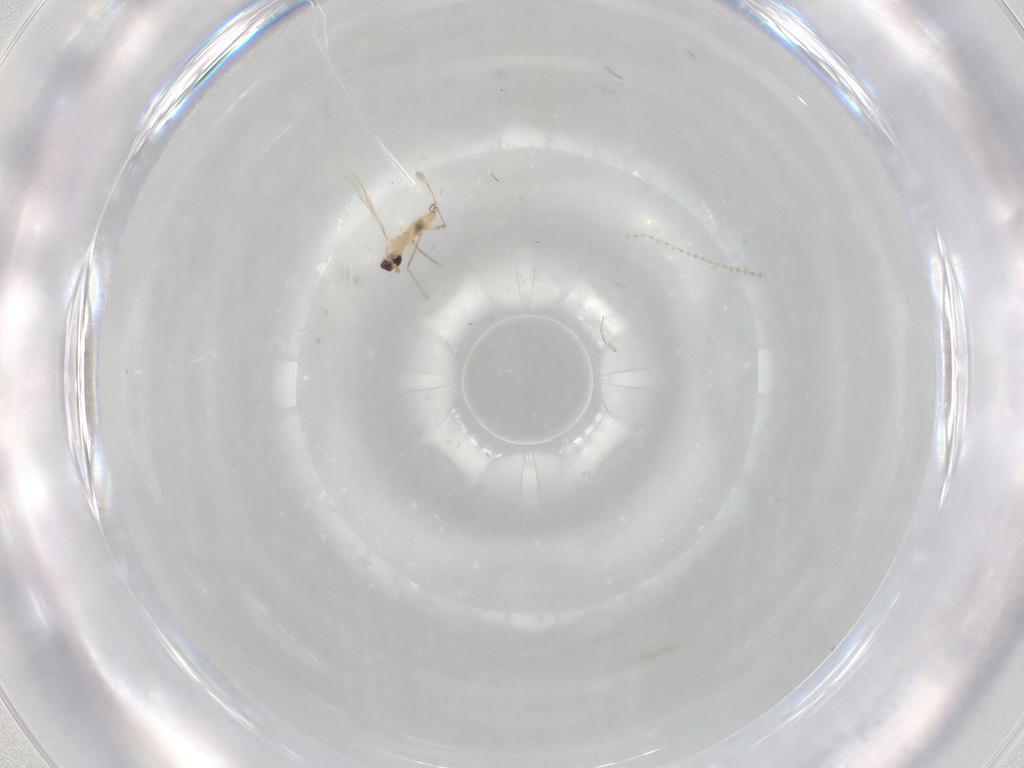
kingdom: Animalia
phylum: Arthropoda
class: Insecta
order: Diptera
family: Cecidomyiidae
